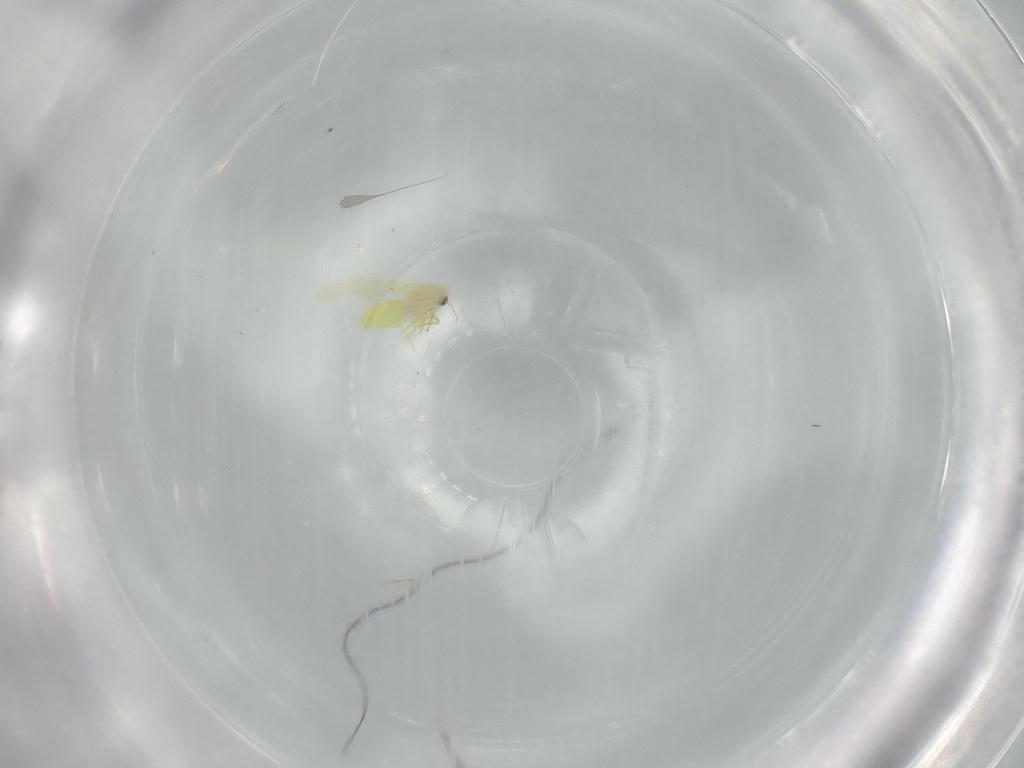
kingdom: Animalia
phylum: Arthropoda
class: Insecta
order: Hemiptera
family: Aleyrodidae
